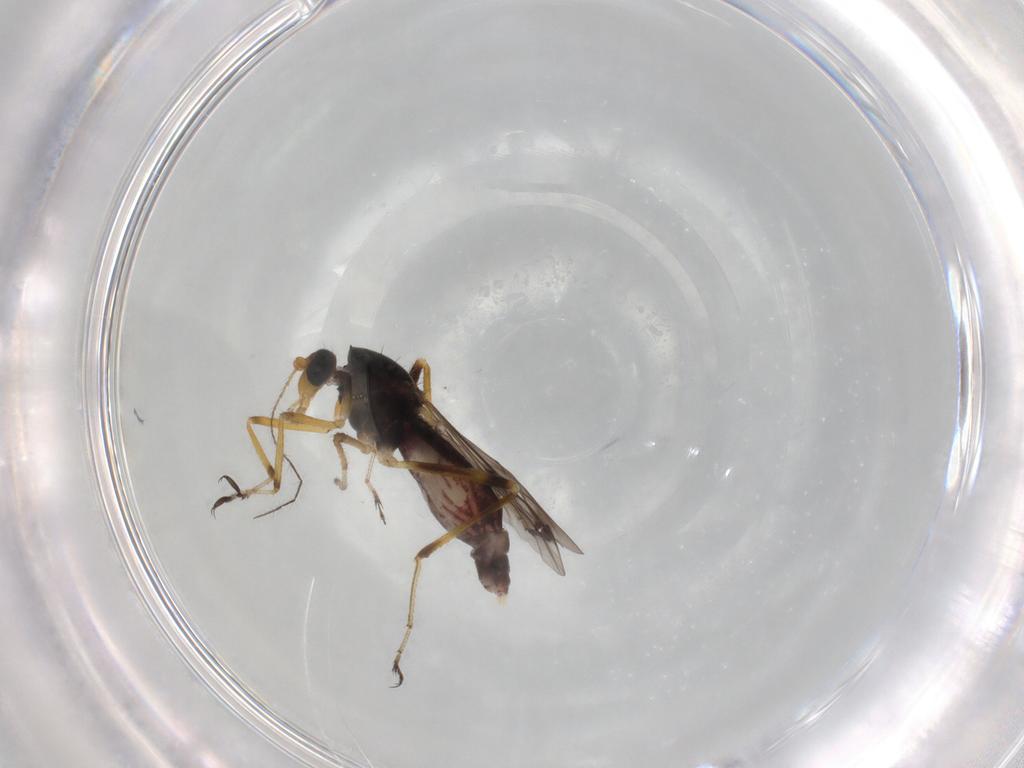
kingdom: Animalia
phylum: Arthropoda
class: Insecta
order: Diptera
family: Ceratopogonidae
